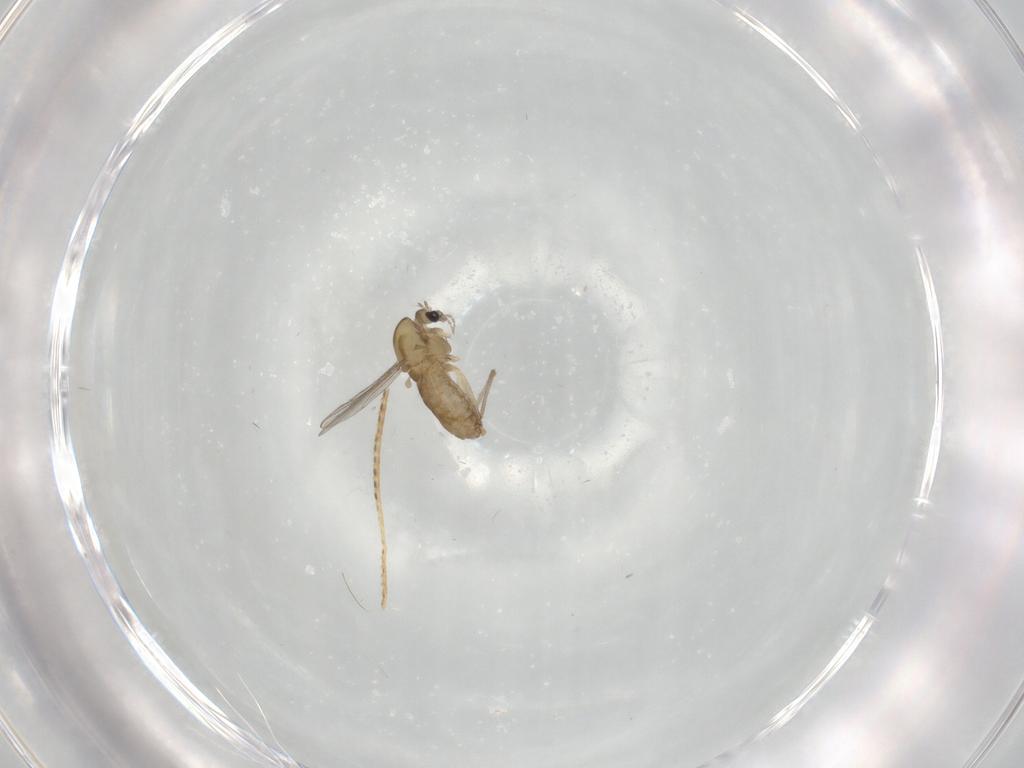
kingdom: Animalia
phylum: Arthropoda
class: Insecta
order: Diptera
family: Chironomidae
